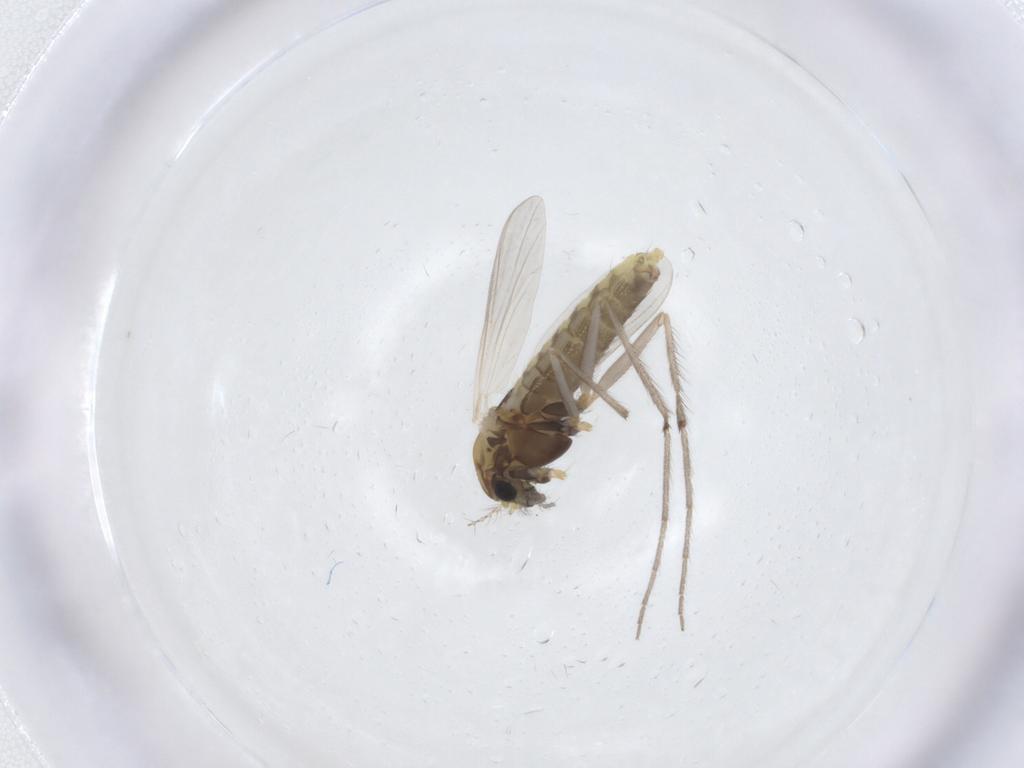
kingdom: Animalia
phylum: Arthropoda
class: Insecta
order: Diptera
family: Chironomidae
